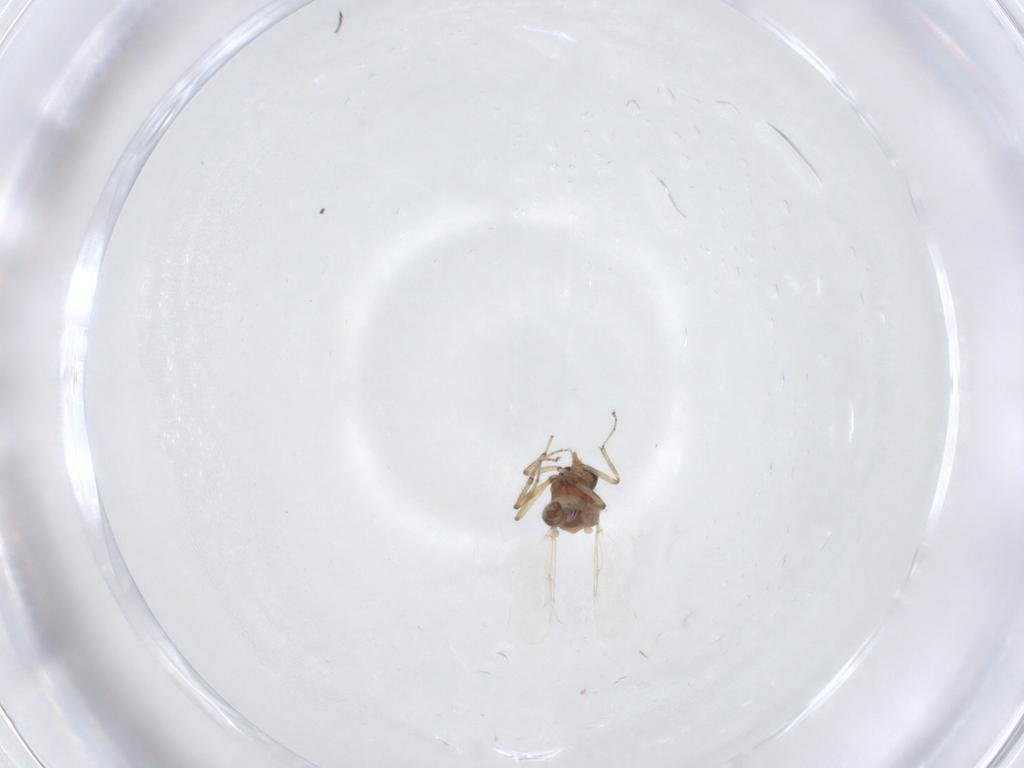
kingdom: Animalia
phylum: Arthropoda
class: Insecta
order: Diptera
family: Ceratopogonidae
